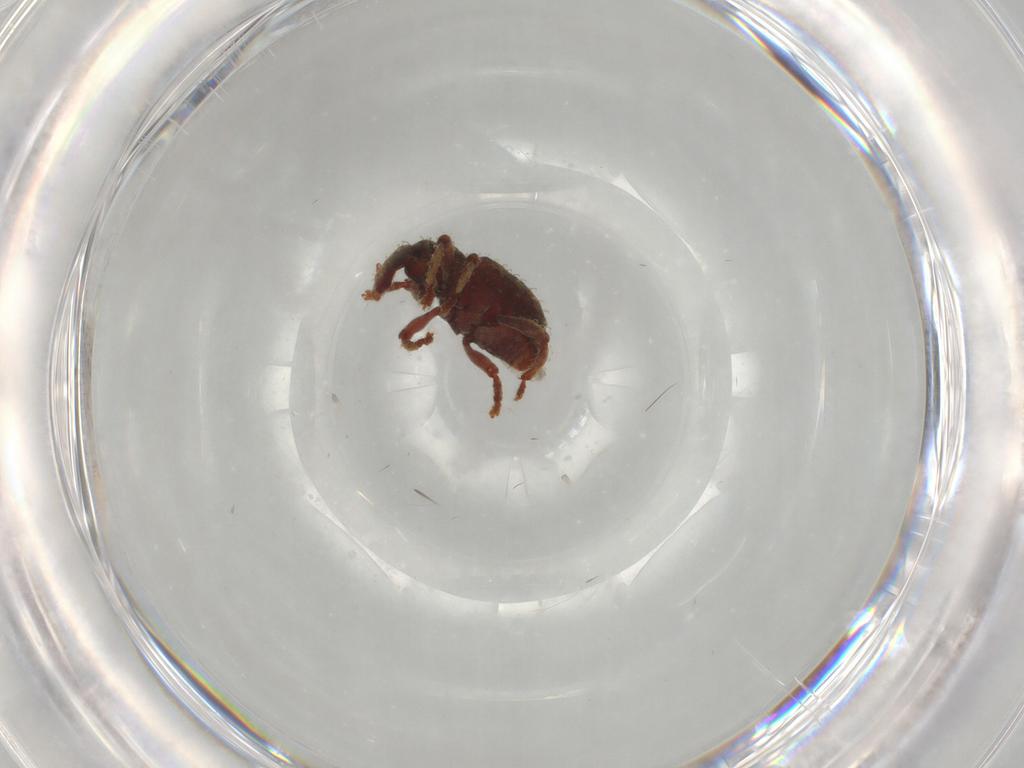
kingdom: Animalia
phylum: Arthropoda
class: Insecta
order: Coleoptera
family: Curculionidae
